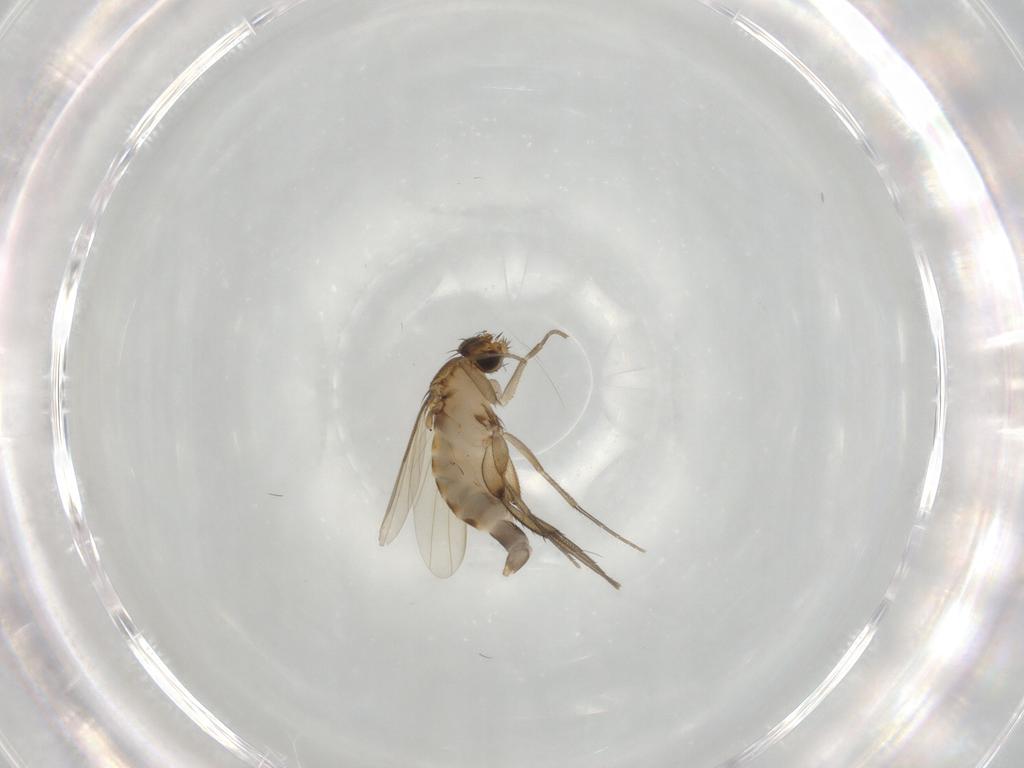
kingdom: Animalia
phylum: Arthropoda
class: Insecta
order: Diptera
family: Phoridae
